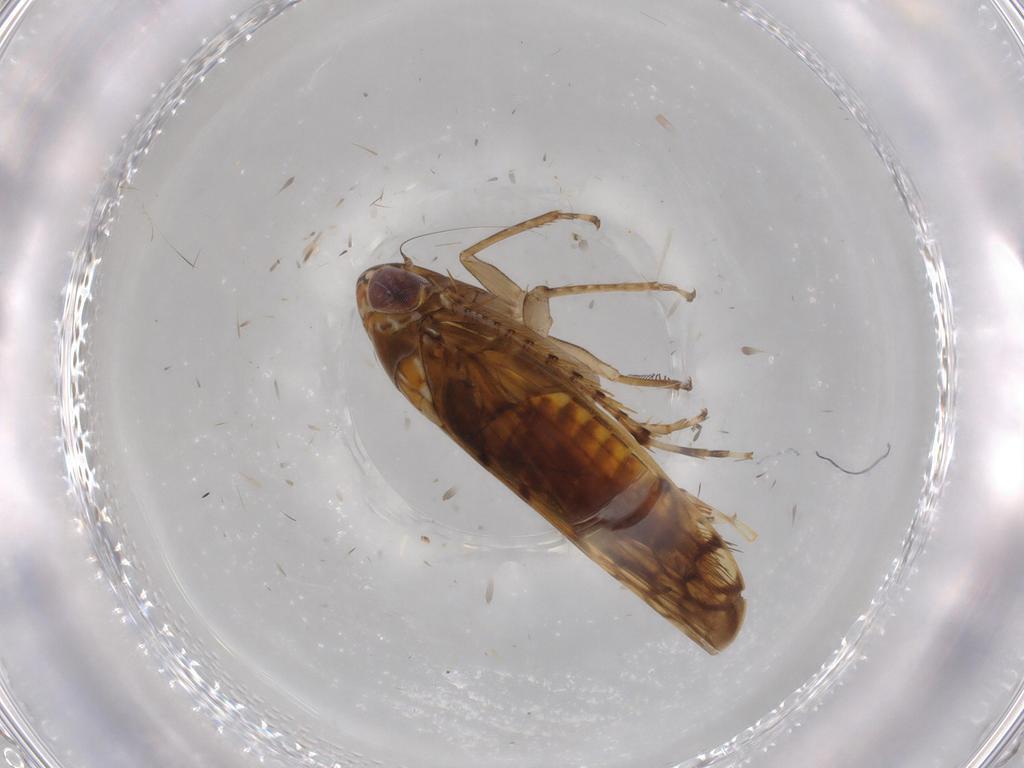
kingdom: Animalia
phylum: Arthropoda
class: Insecta
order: Hemiptera
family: Cicadellidae
